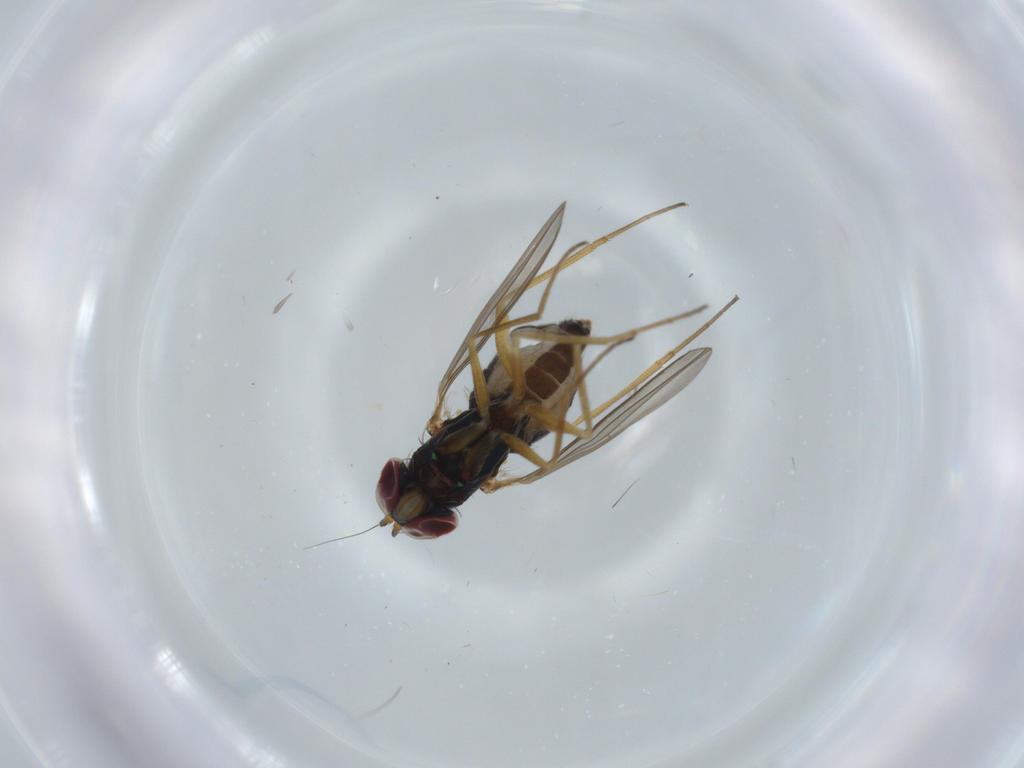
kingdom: Animalia
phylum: Arthropoda
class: Insecta
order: Diptera
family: Dolichopodidae
